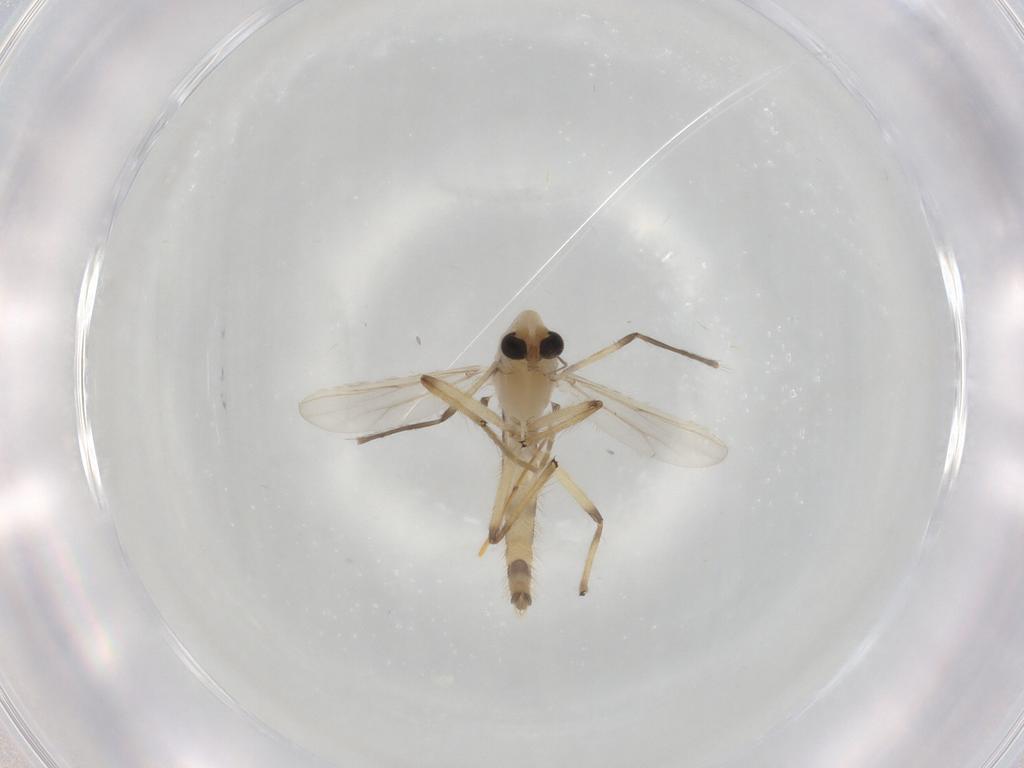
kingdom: Animalia
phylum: Arthropoda
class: Insecta
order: Diptera
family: Chironomidae
